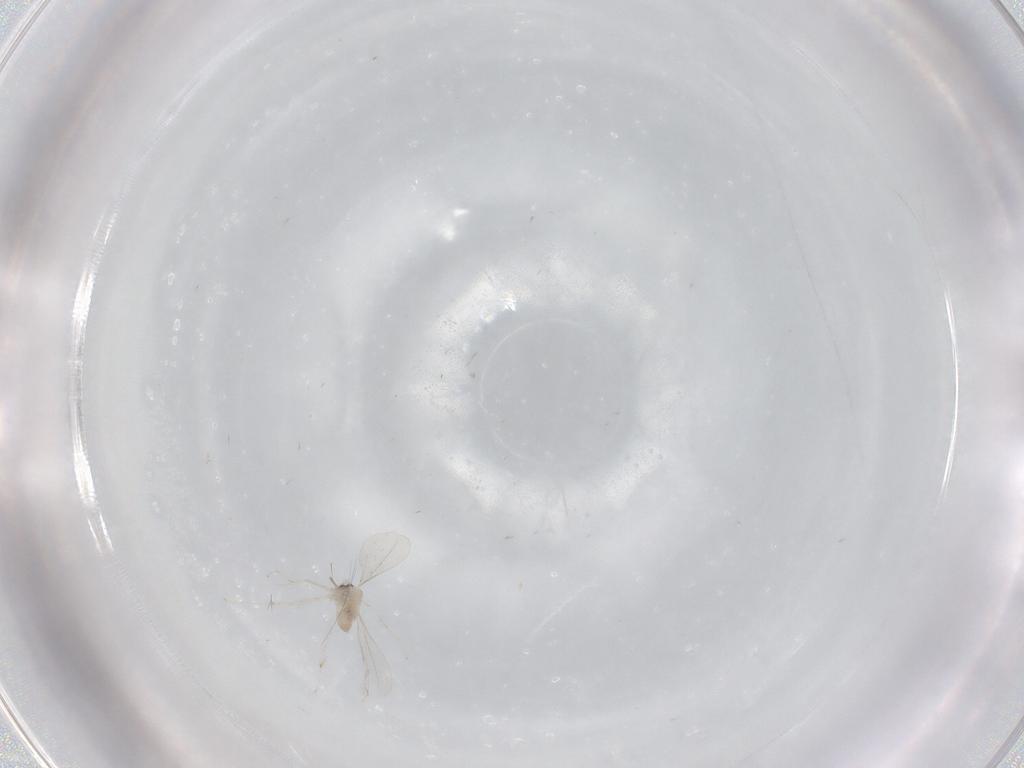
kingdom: Animalia
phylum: Arthropoda
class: Insecta
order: Diptera
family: Cecidomyiidae
